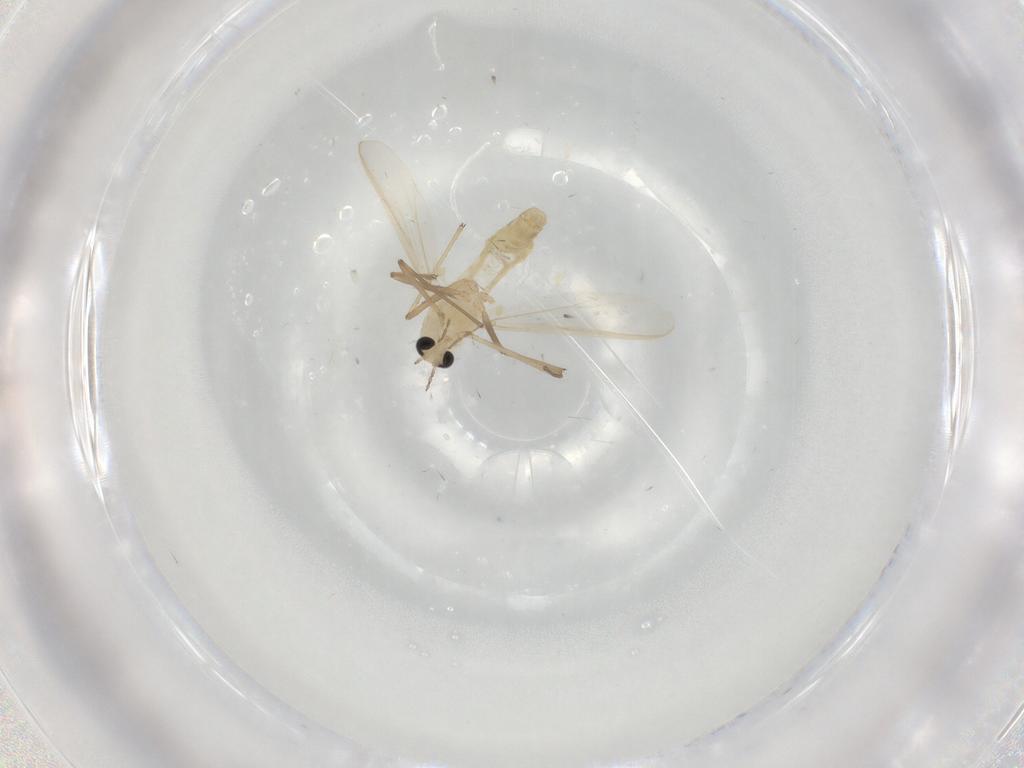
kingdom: Animalia
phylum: Arthropoda
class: Insecta
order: Diptera
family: Chironomidae
